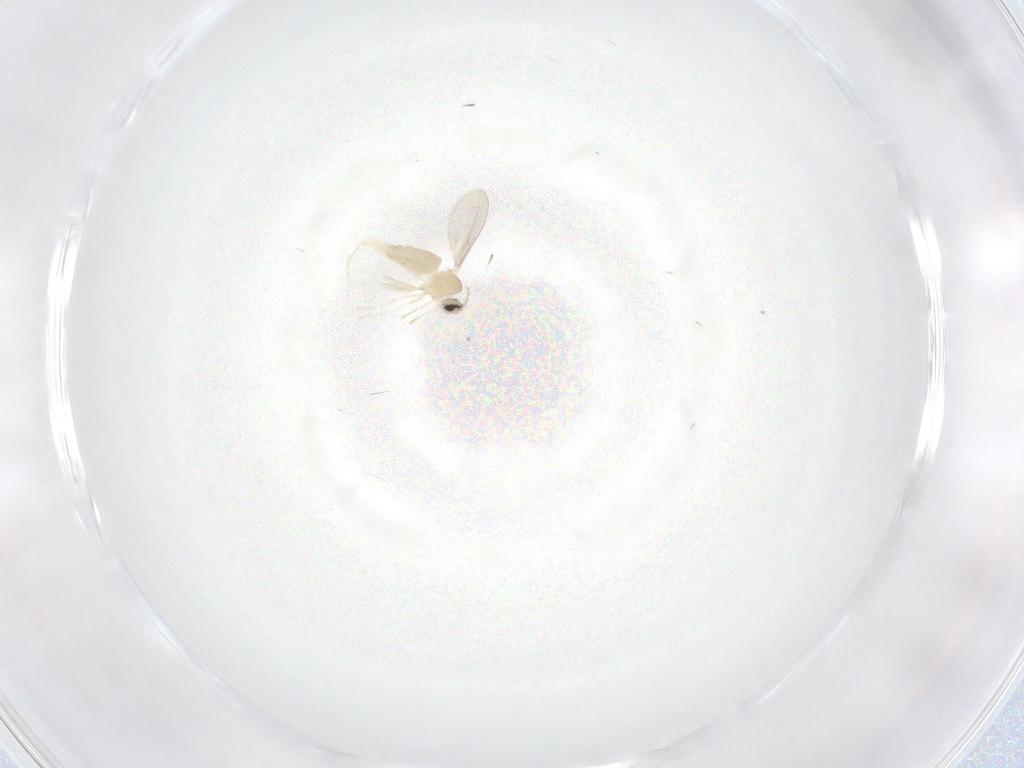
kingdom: Animalia
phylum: Arthropoda
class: Insecta
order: Diptera
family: Cecidomyiidae
